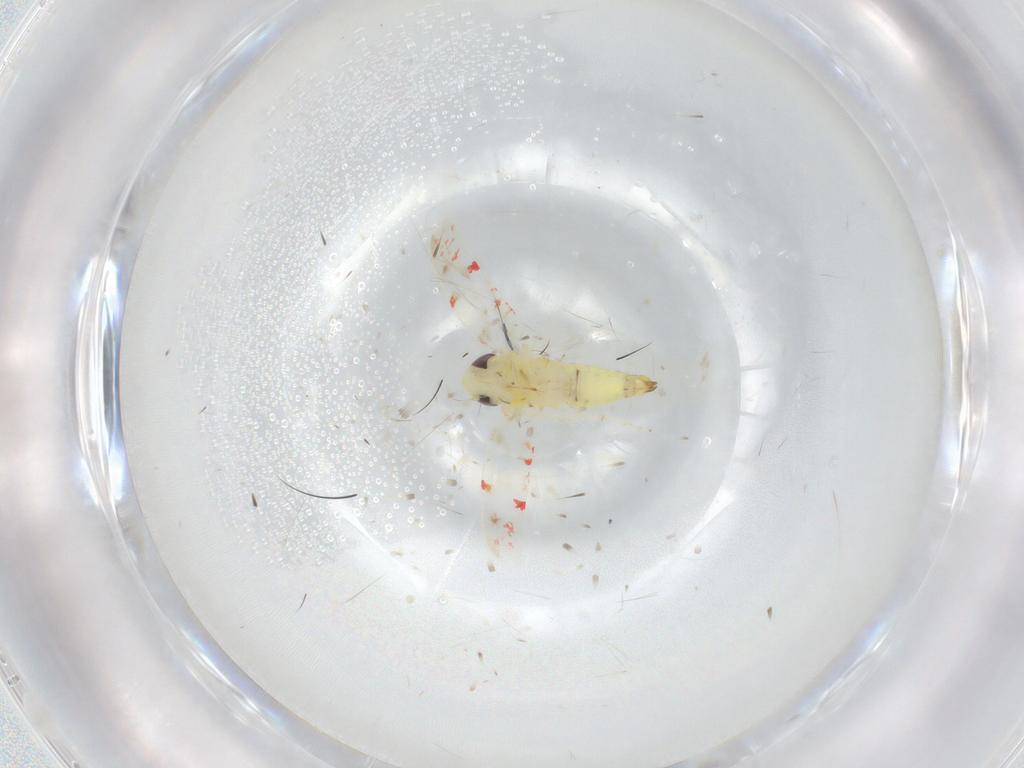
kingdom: Animalia
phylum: Arthropoda
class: Insecta
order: Hemiptera
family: Cicadellidae
